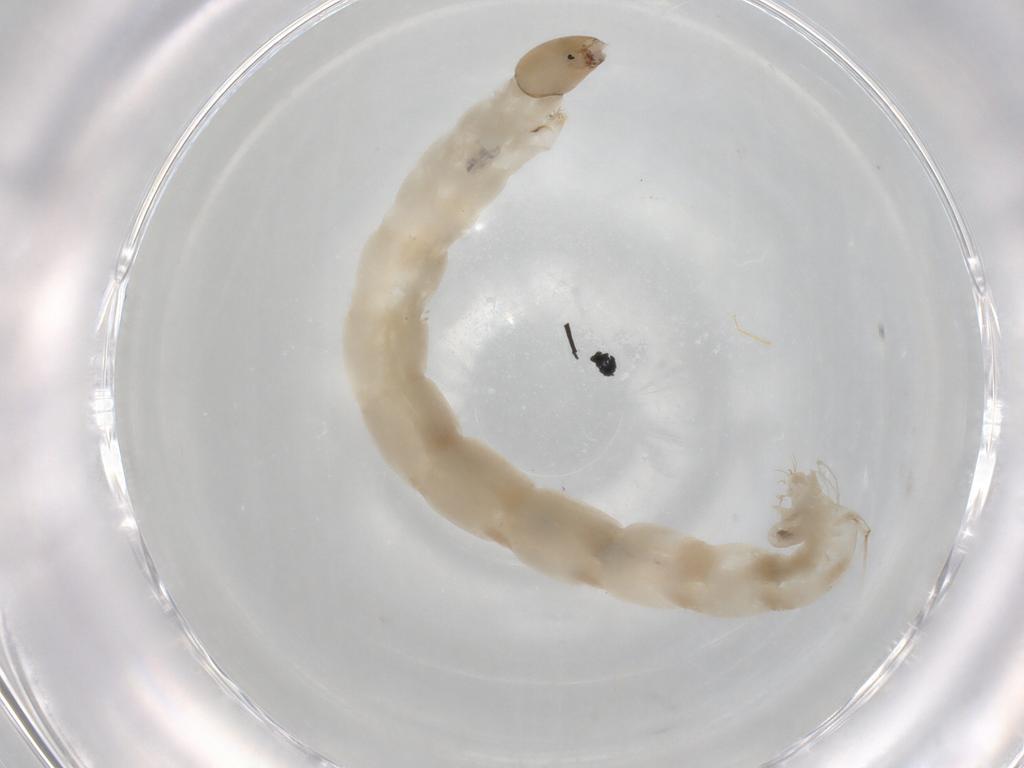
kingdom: Animalia
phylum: Arthropoda
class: Insecta
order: Diptera
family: Chironomidae
